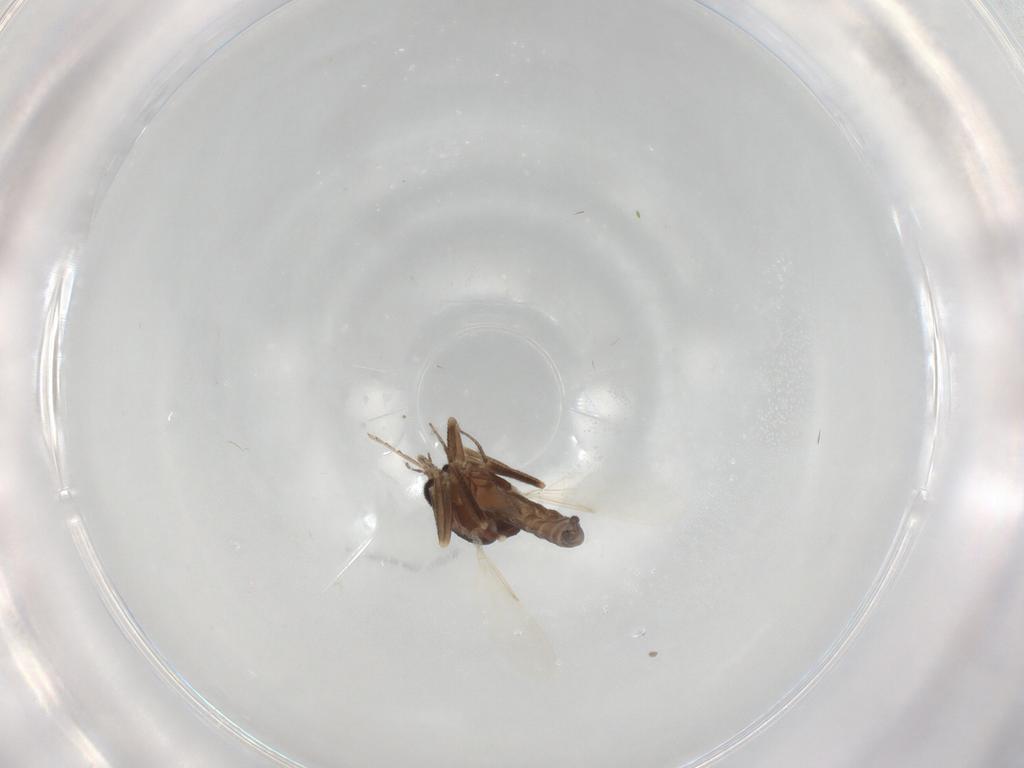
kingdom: Animalia
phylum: Arthropoda
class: Insecta
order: Diptera
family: Ceratopogonidae
